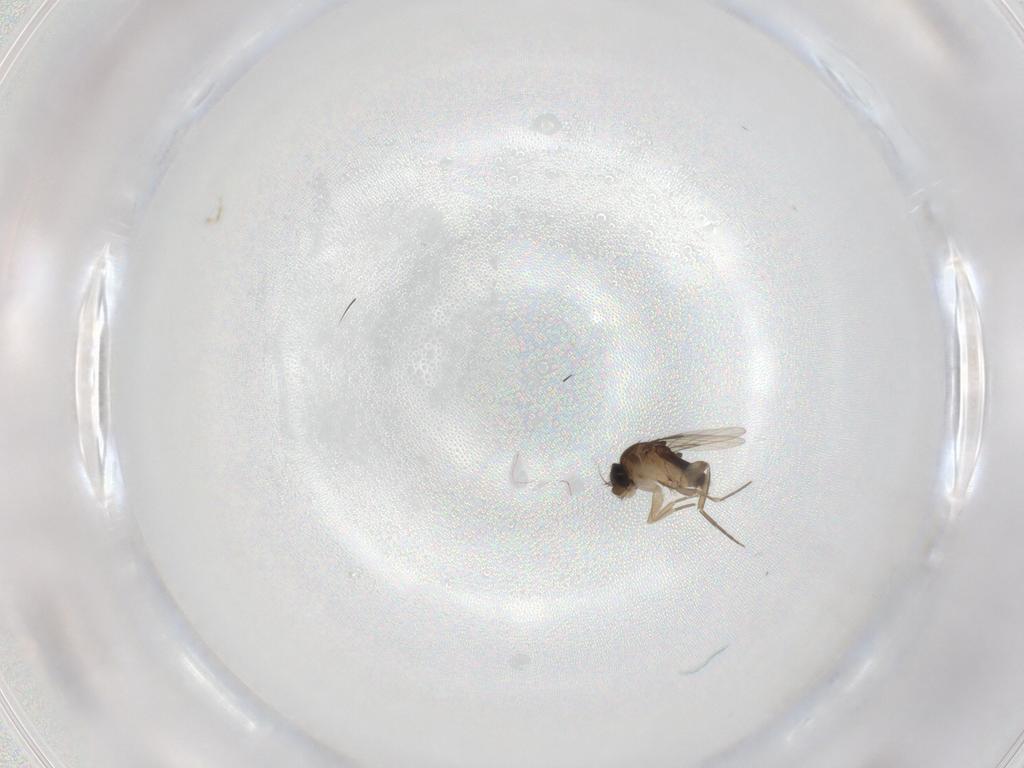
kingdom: Animalia
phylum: Arthropoda
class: Insecta
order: Diptera
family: Phoridae
